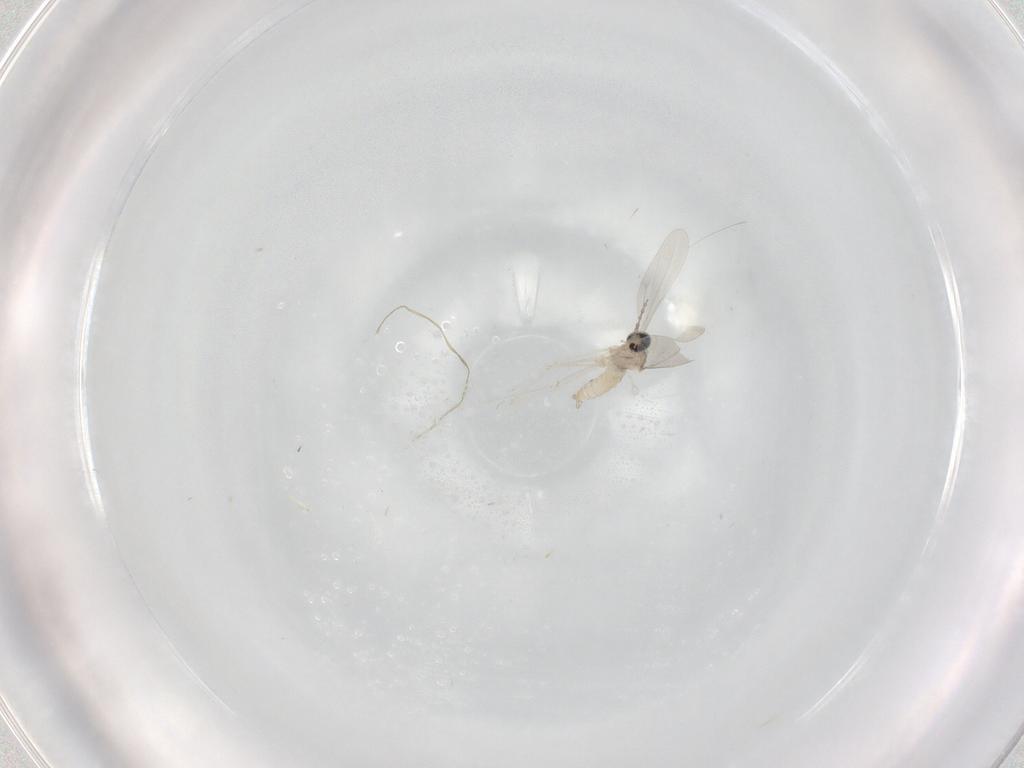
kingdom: Animalia
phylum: Arthropoda
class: Insecta
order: Diptera
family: Cecidomyiidae
